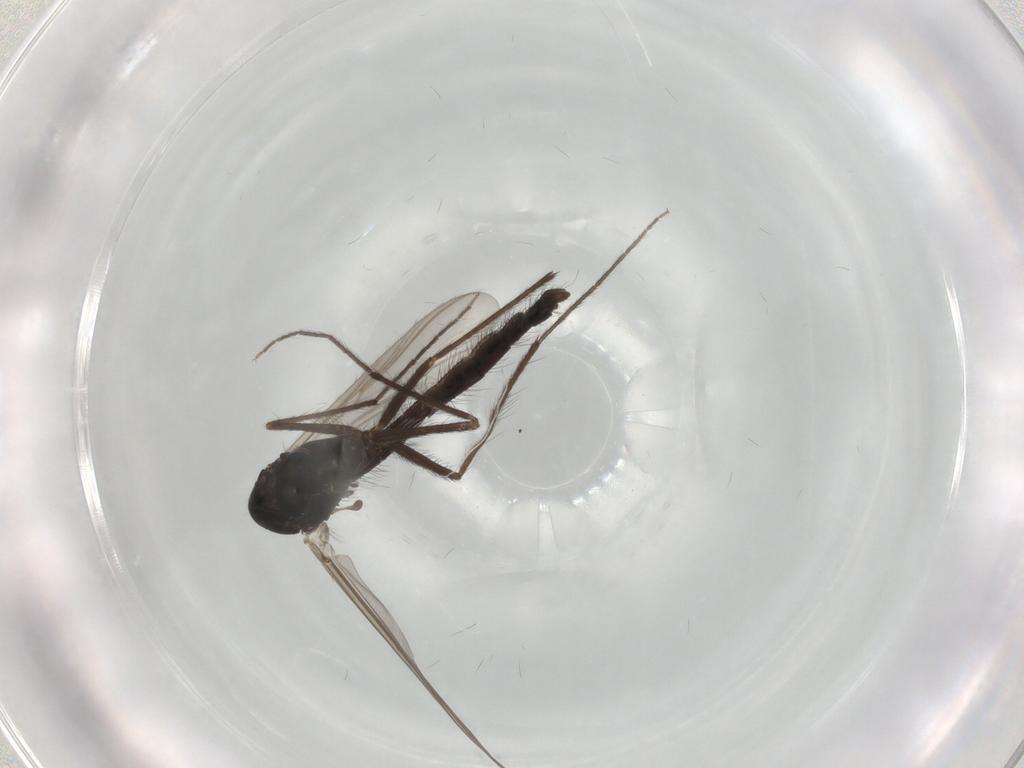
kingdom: Animalia
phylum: Arthropoda
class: Insecta
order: Diptera
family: Chironomidae
